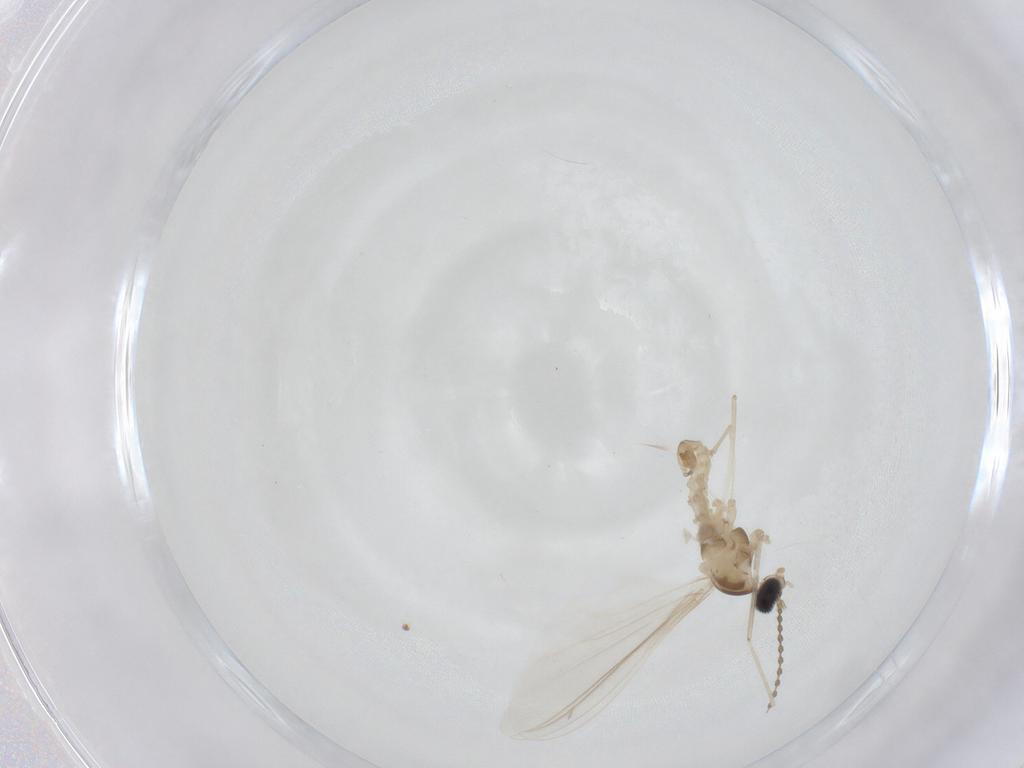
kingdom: Animalia
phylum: Arthropoda
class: Insecta
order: Diptera
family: Cecidomyiidae
